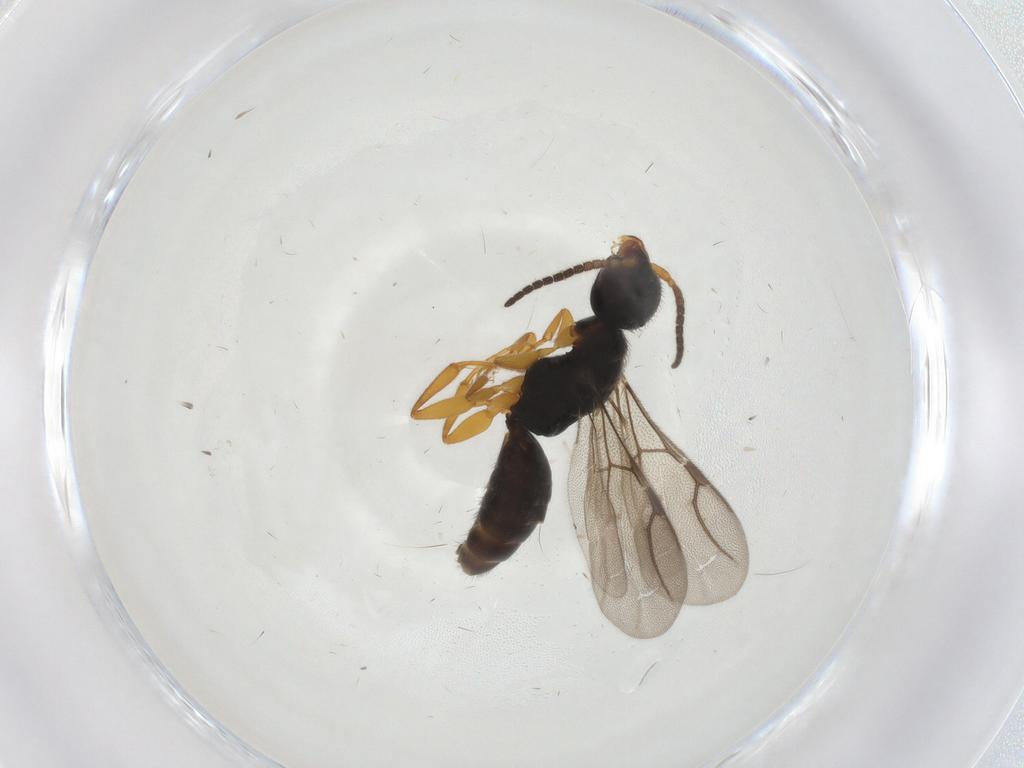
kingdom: Animalia
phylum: Arthropoda
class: Insecta
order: Hymenoptera
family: Bethylidae
